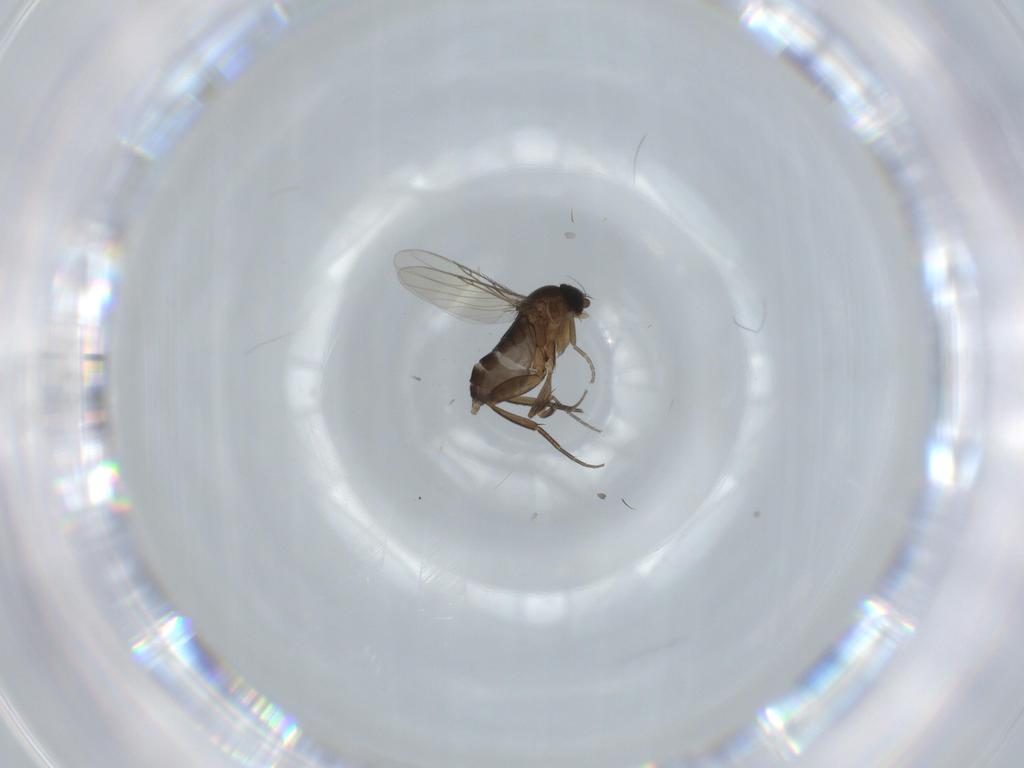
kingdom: Animalia
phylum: Arthropoda
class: Insecta
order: Diptera
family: Phoridae
